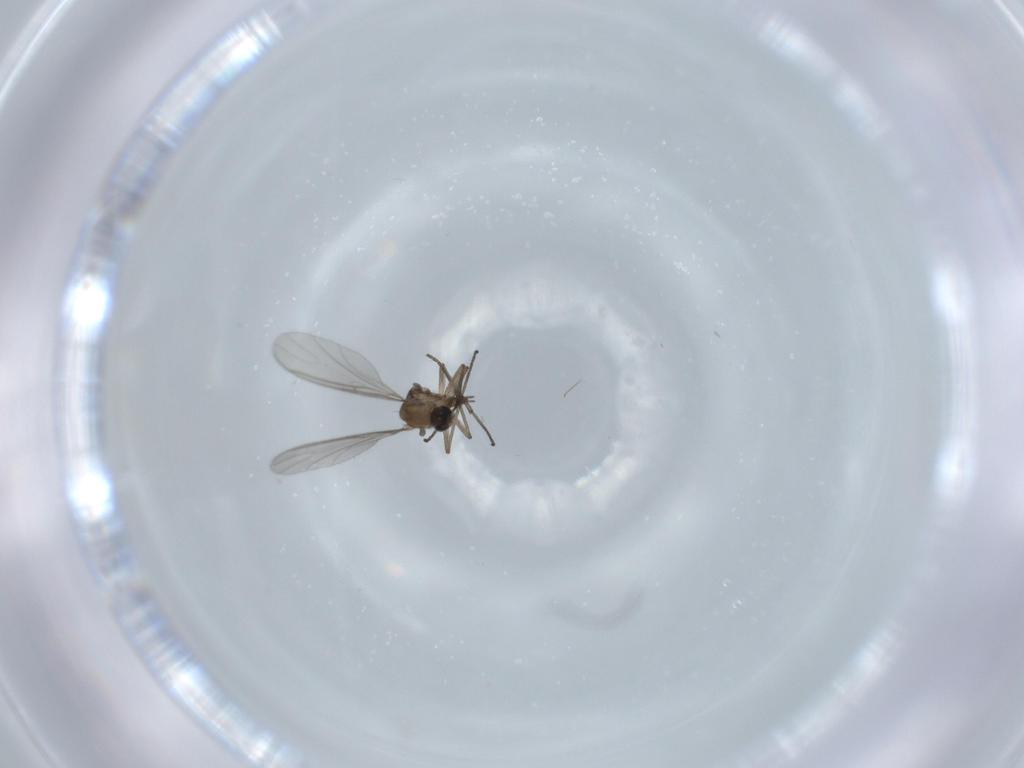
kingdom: Animalia
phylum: Arthropoda
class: Insecta
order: Diptera
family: Sciaridae
